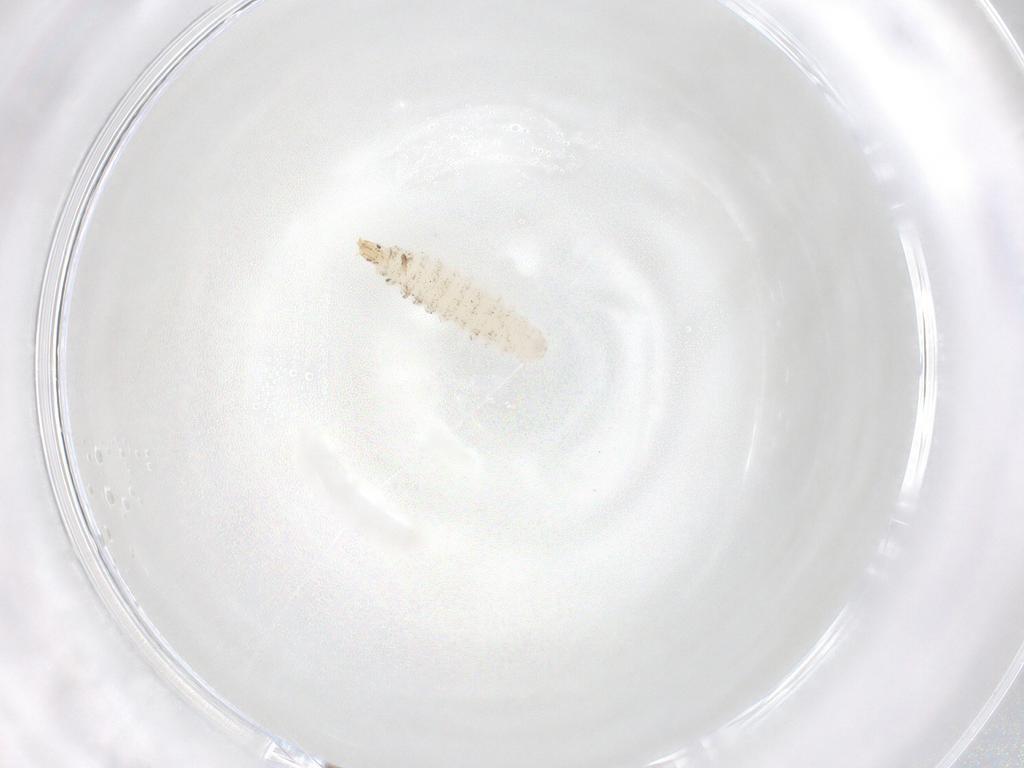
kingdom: Animalia
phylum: Arthropoda
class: Insecta
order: Diptera
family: Stratiomyidae
